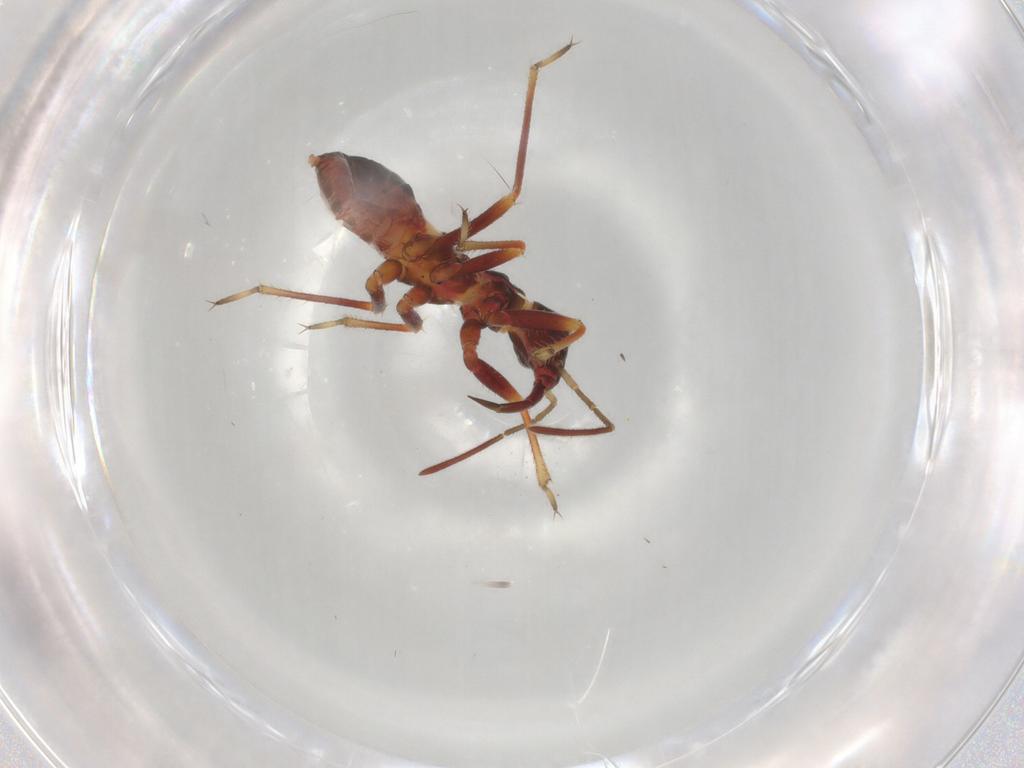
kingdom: Animalia
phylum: Arthropoda
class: Insecta
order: Hemiptera
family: Nabidae
